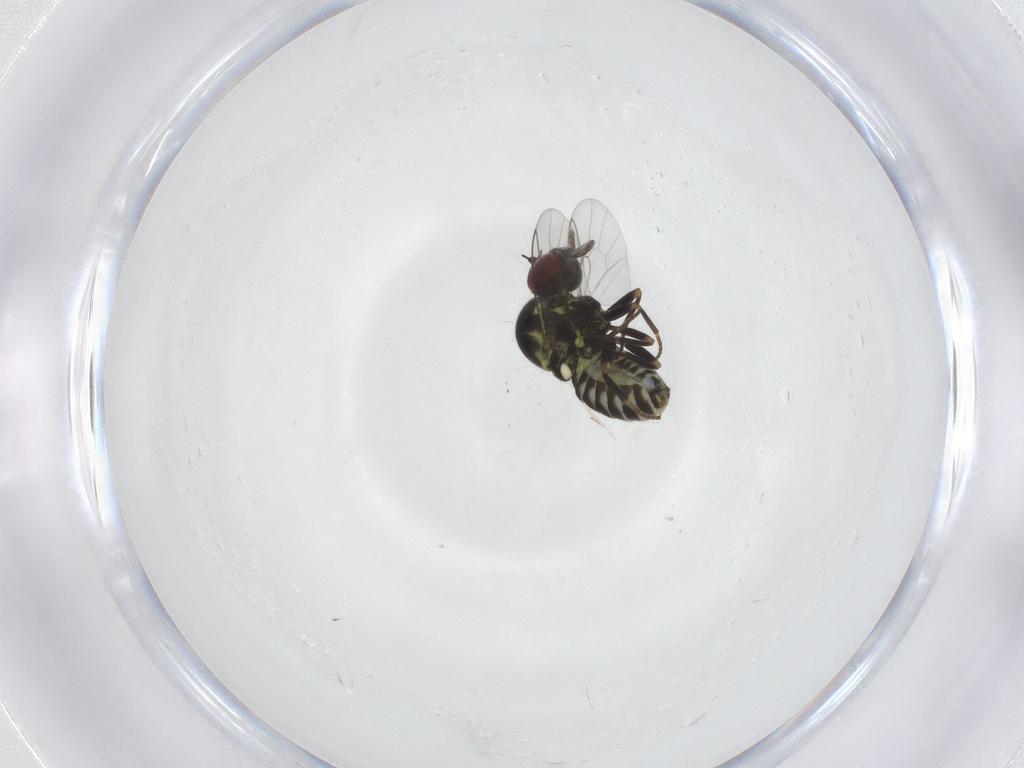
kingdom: Animalia
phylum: Arthropoda
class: Insecta
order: Diptera
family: Mythicomyiidae
